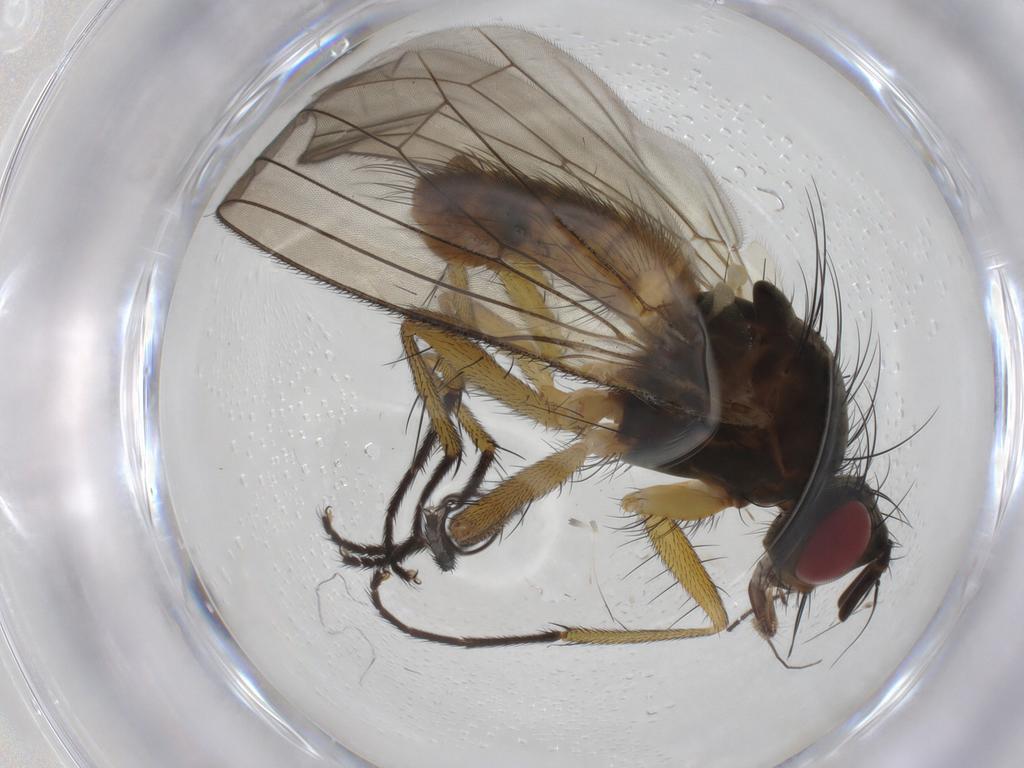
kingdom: Animalia
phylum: Arthropoda
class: Insecta
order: Diptera
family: Muscidae
